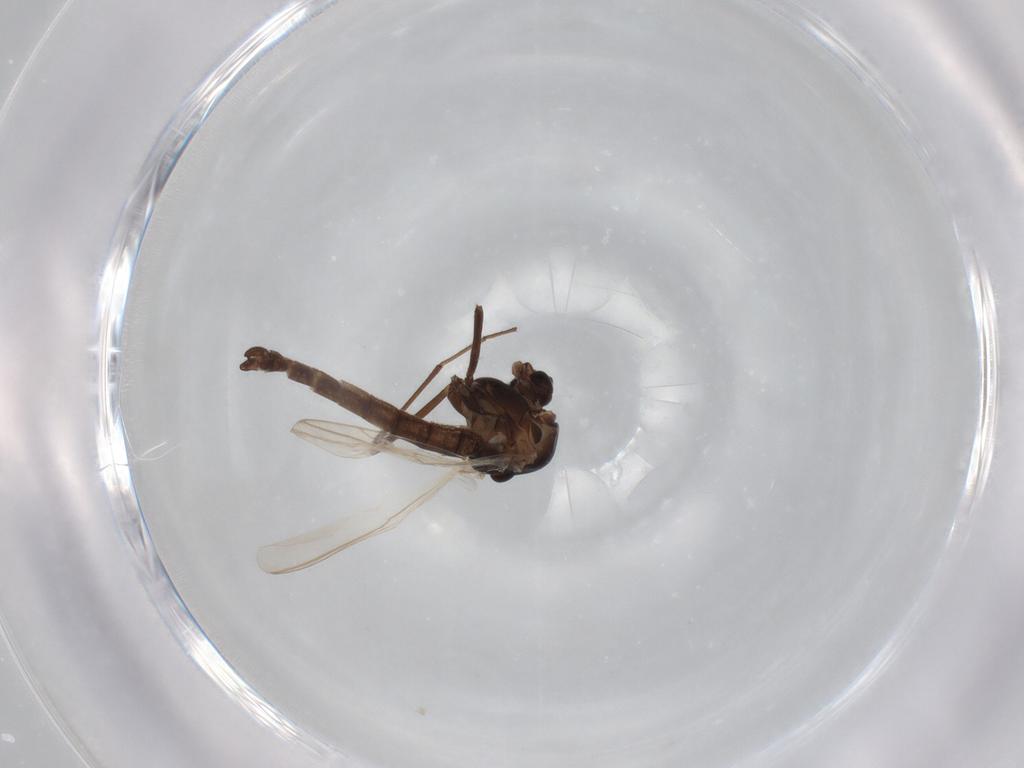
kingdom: Animalia
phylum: Arthropoda
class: Insecta
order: Diptera
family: Chironomidae
